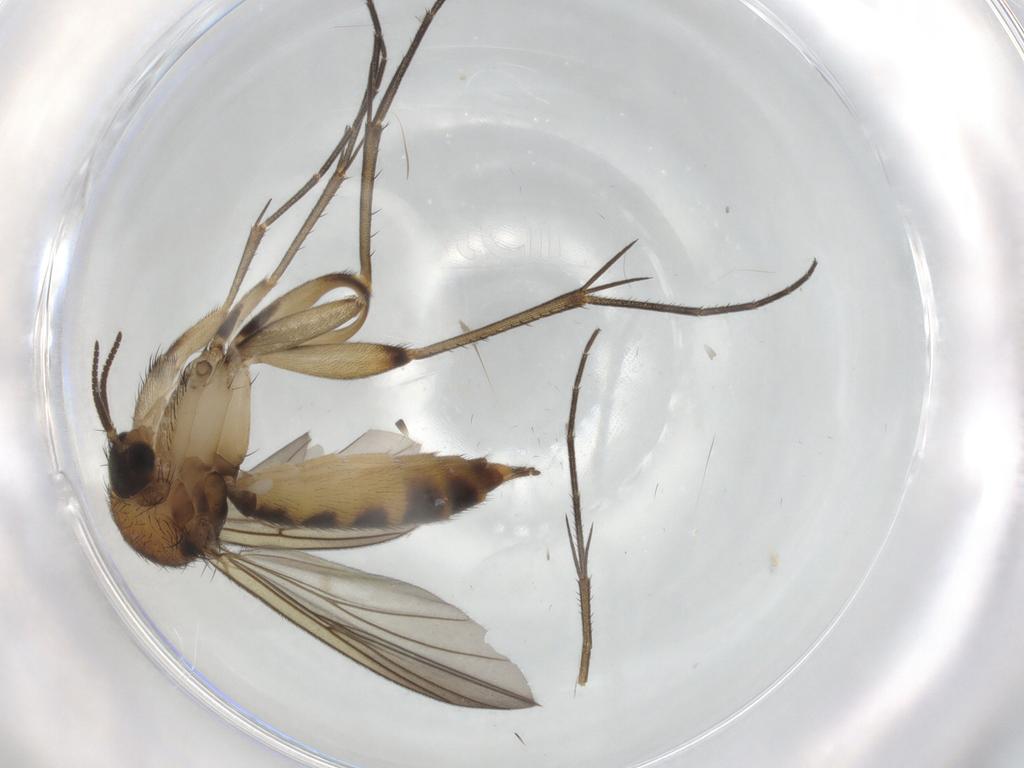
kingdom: Animalia
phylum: Arthropoda
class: Insecta
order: Diptera
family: Mycetophilidae
